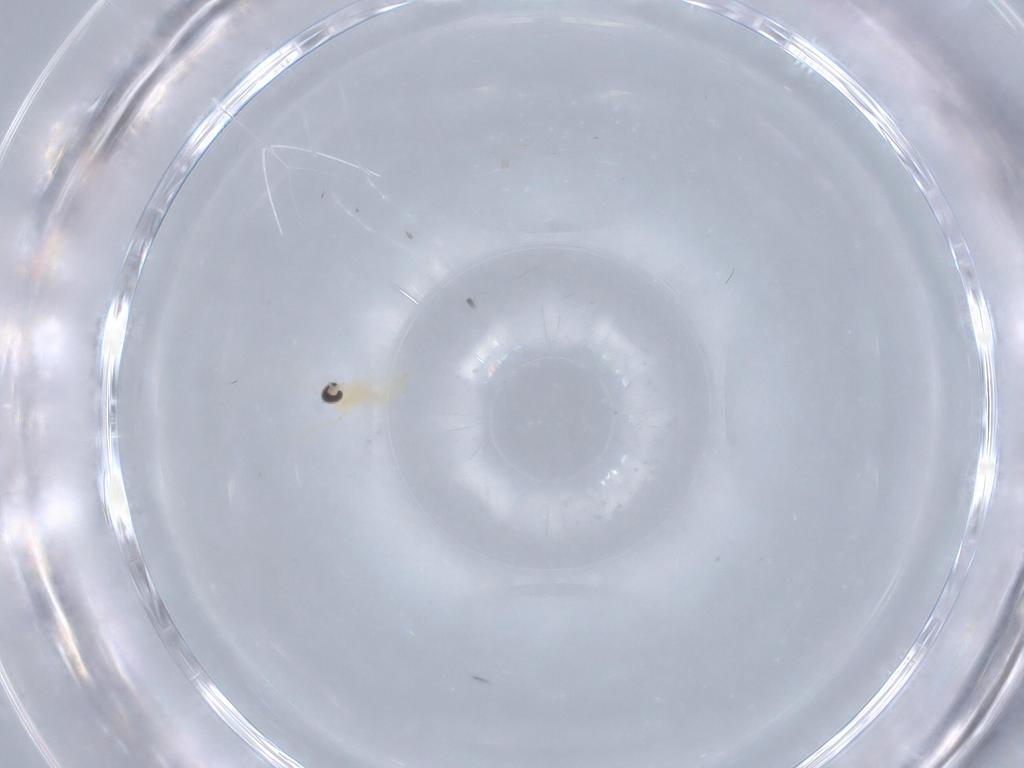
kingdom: Animalia
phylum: Arthropoda
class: Insecta
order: Diptera
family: Cecidomyiidae
